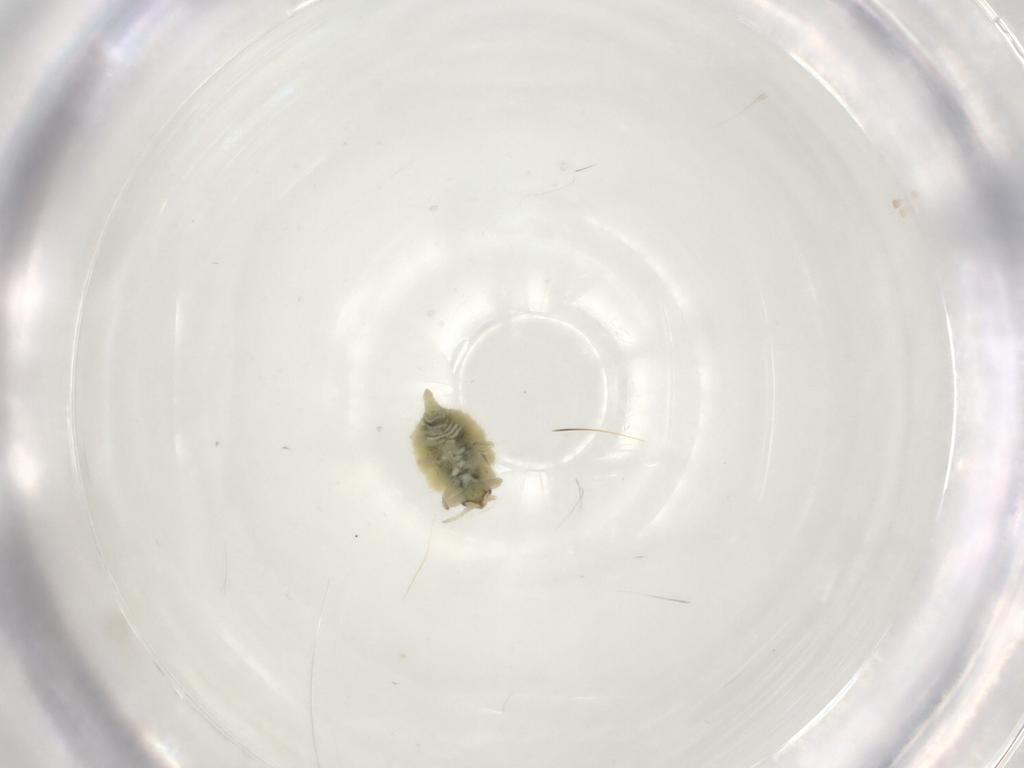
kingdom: Animalia
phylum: Arthropoda
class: Insecta
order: Neuroptera
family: Coniopterygidae
